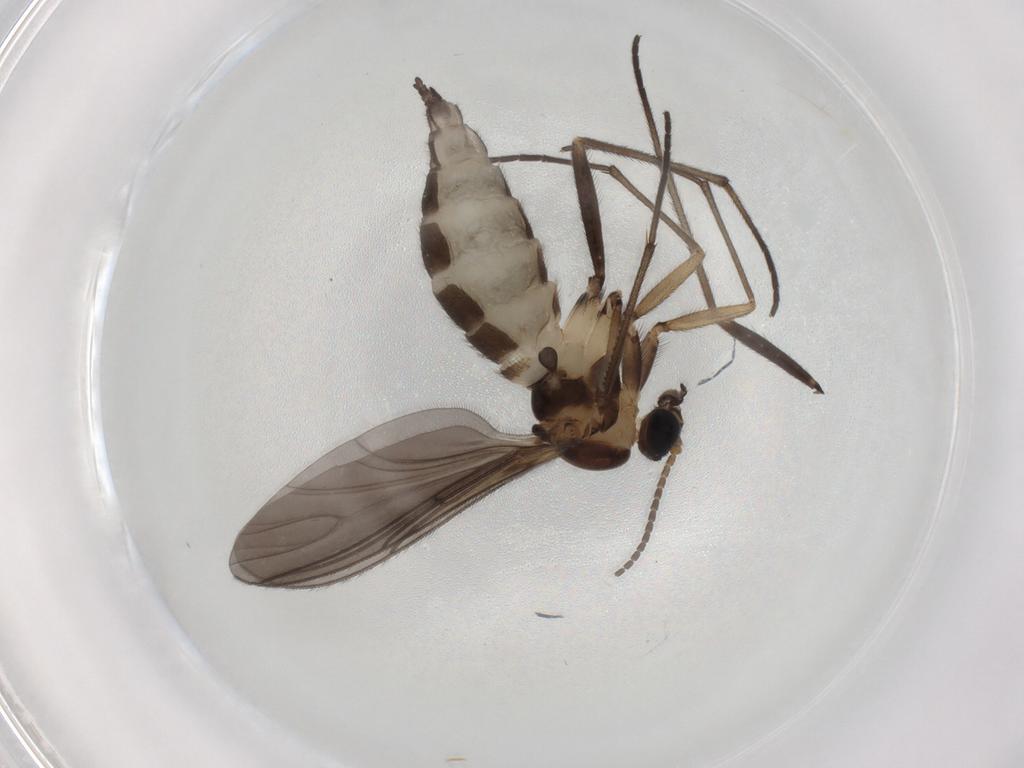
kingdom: Animalia
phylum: Arthropoda
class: Insecta
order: Diptera
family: Sciaridae
